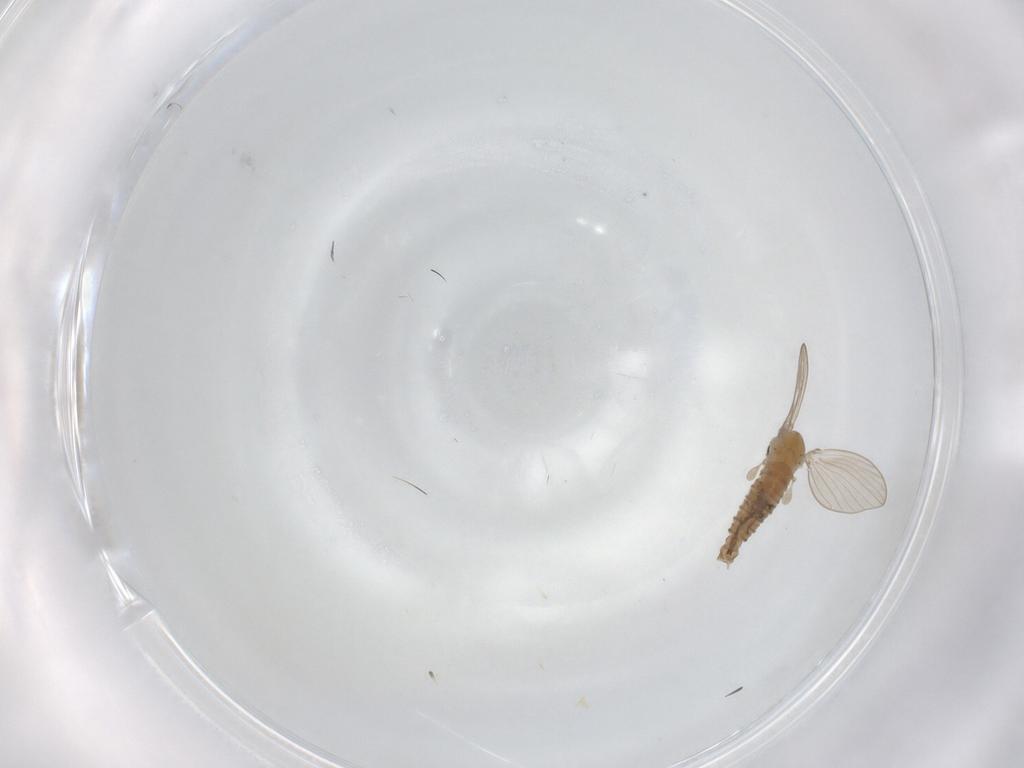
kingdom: Animalia
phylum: Arthropoda
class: Insecta
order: Diptera
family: Psychodidae
